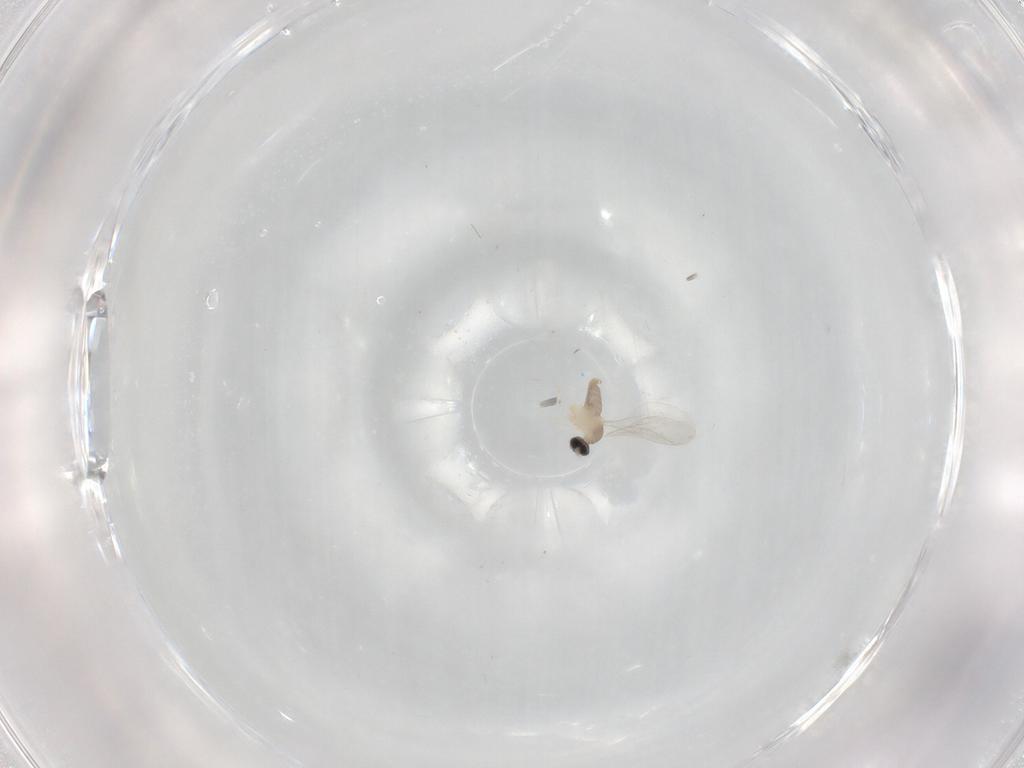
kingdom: Animalia
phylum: Arthropoda
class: Insecta
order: Diptera
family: Cecidomyiidae
